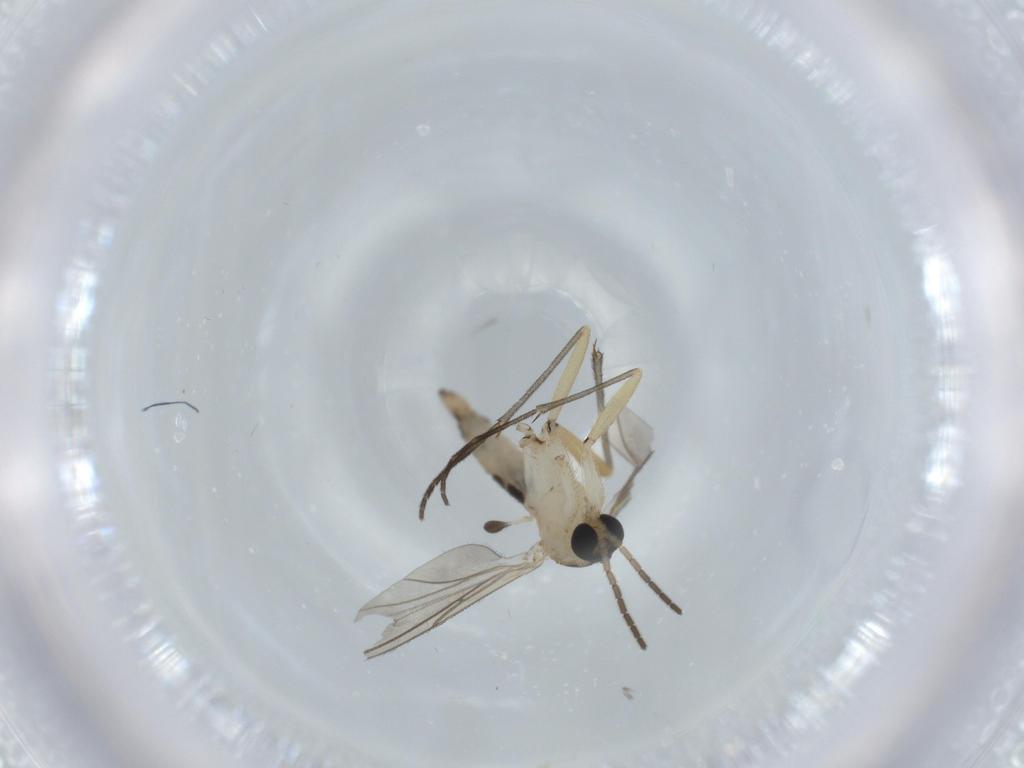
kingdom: Animalia
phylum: Arthropoda
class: Insecta
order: Diptera
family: Sciaridae
